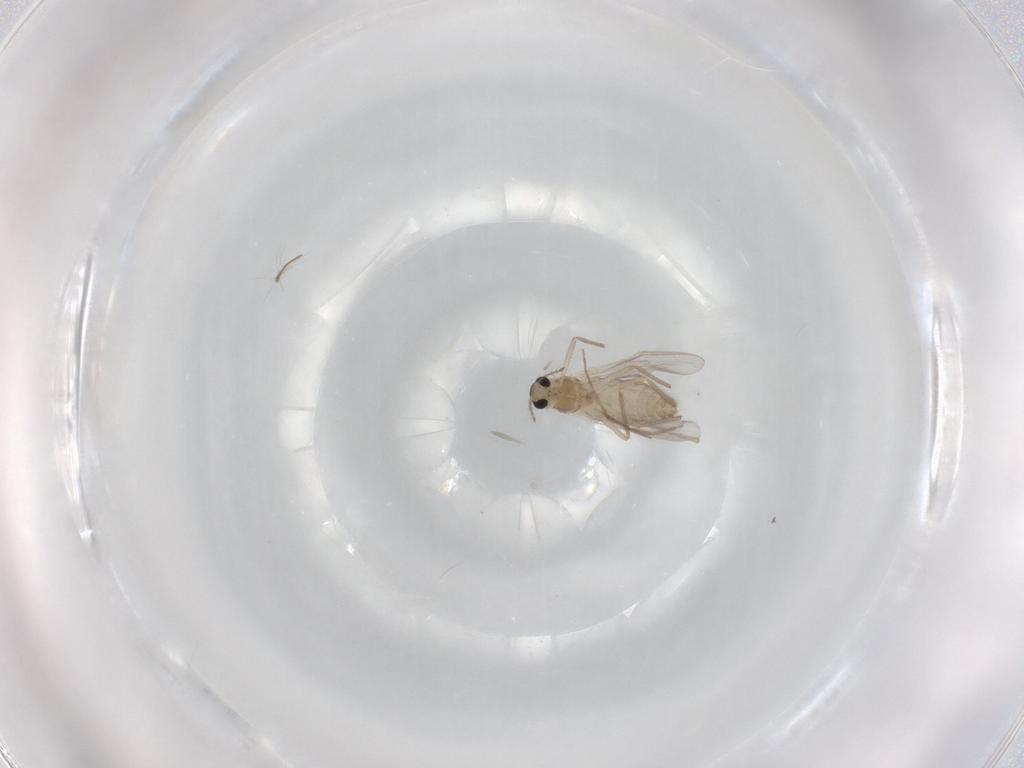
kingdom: Animalia
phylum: Arthropoda
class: Insecta
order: Diptera
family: Chironomidae
